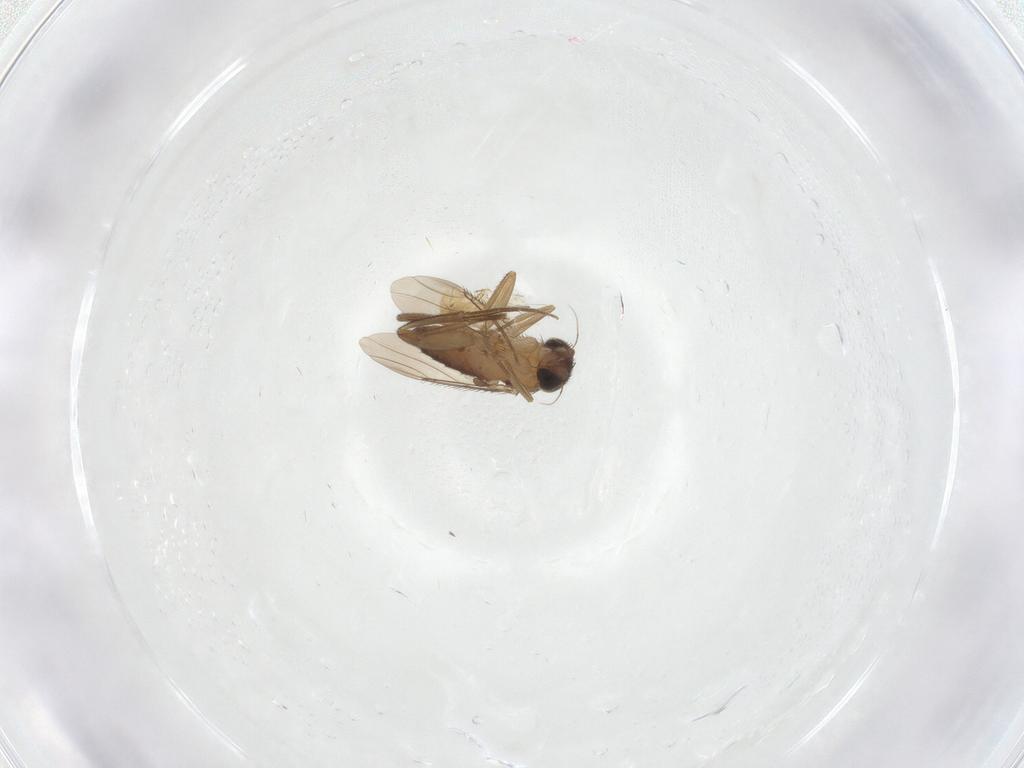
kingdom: Animalia
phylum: Arthropoda
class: Insecta
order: Diptera
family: Phoridae
